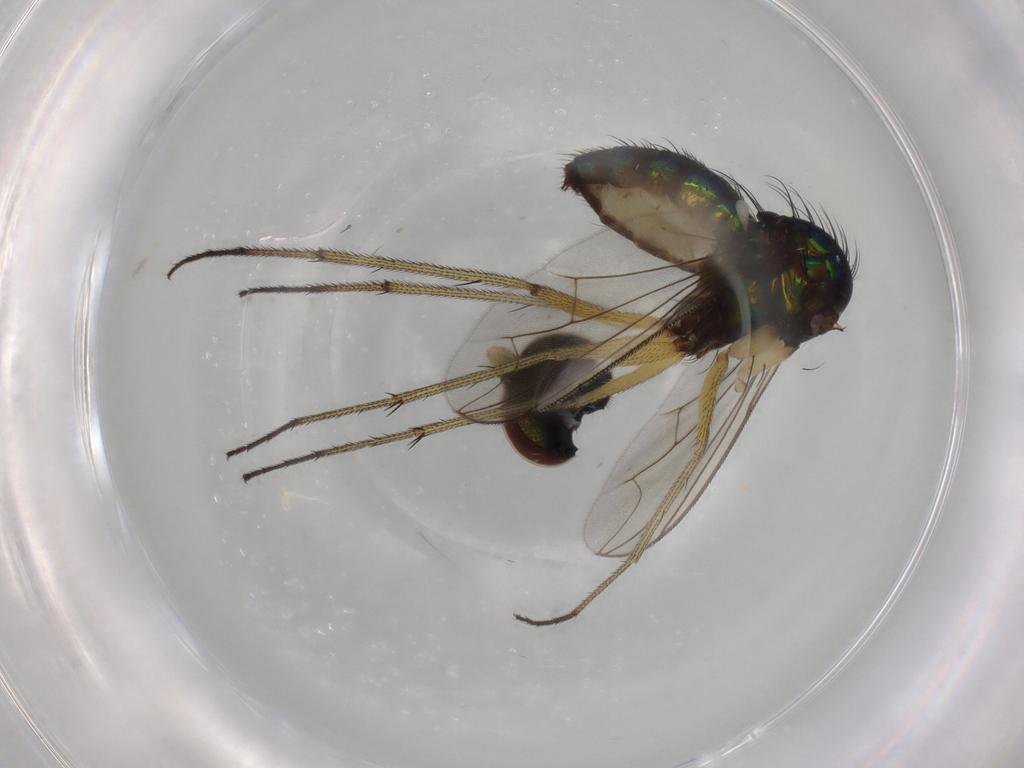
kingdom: Animalia
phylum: Arthropoda
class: Insecta
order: Diptera
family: Dolichopodidae
